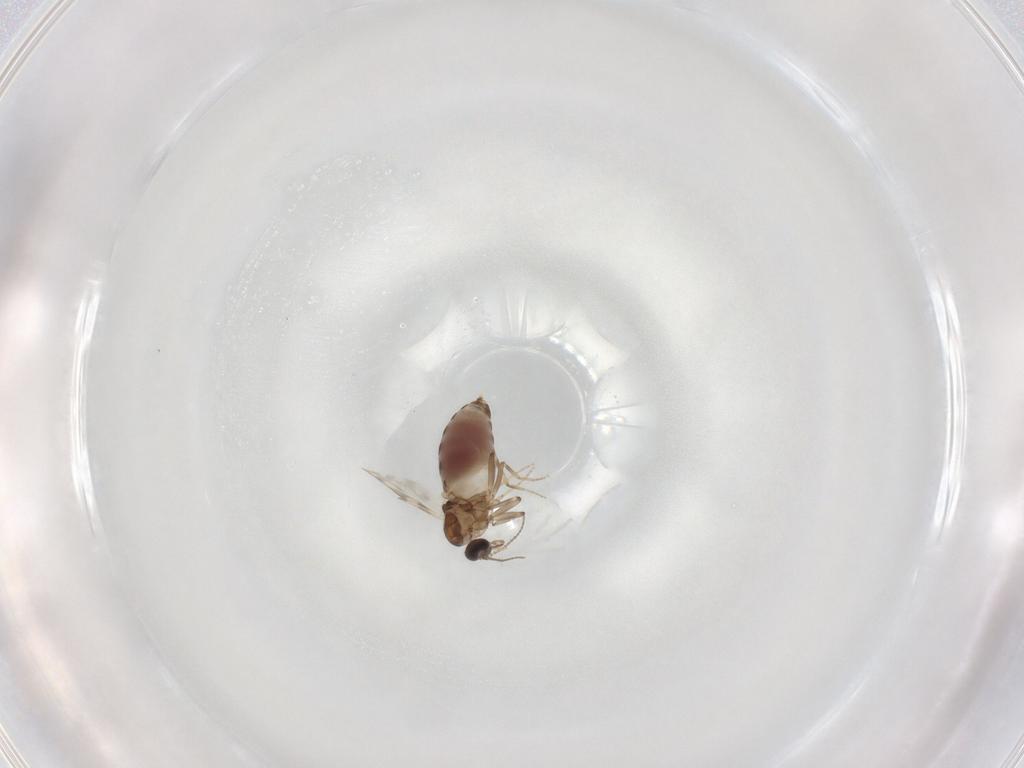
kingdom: Animalia
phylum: Arthropoda
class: Insecta
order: Diptera
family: Ceratopogonidae
